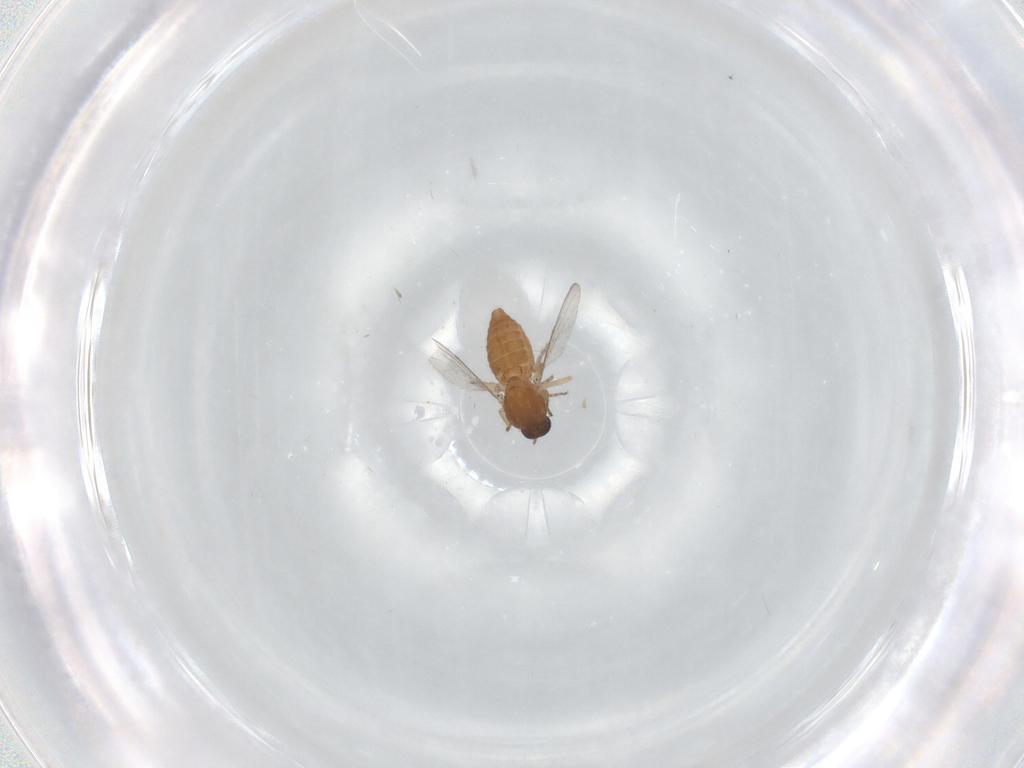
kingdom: Animalia
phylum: Arthropoda
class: Insecta
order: Diptera
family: Ceratopogonidae
